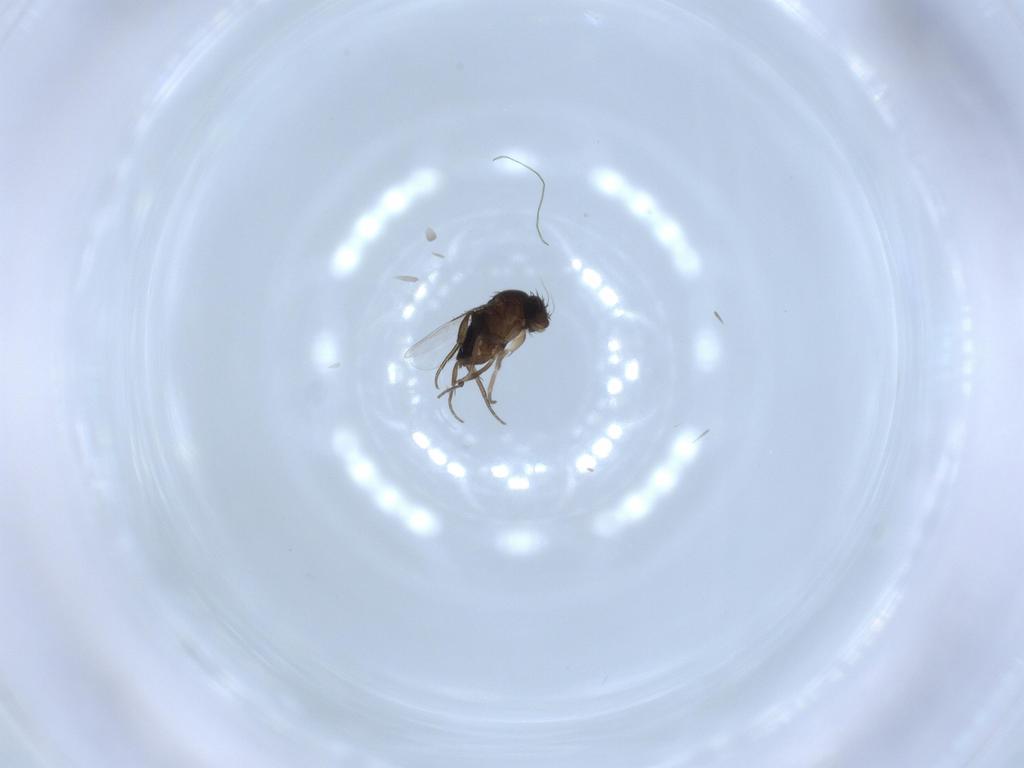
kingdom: Animalia
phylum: Arthropoda
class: Insecta
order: Diptera
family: Phoridae
